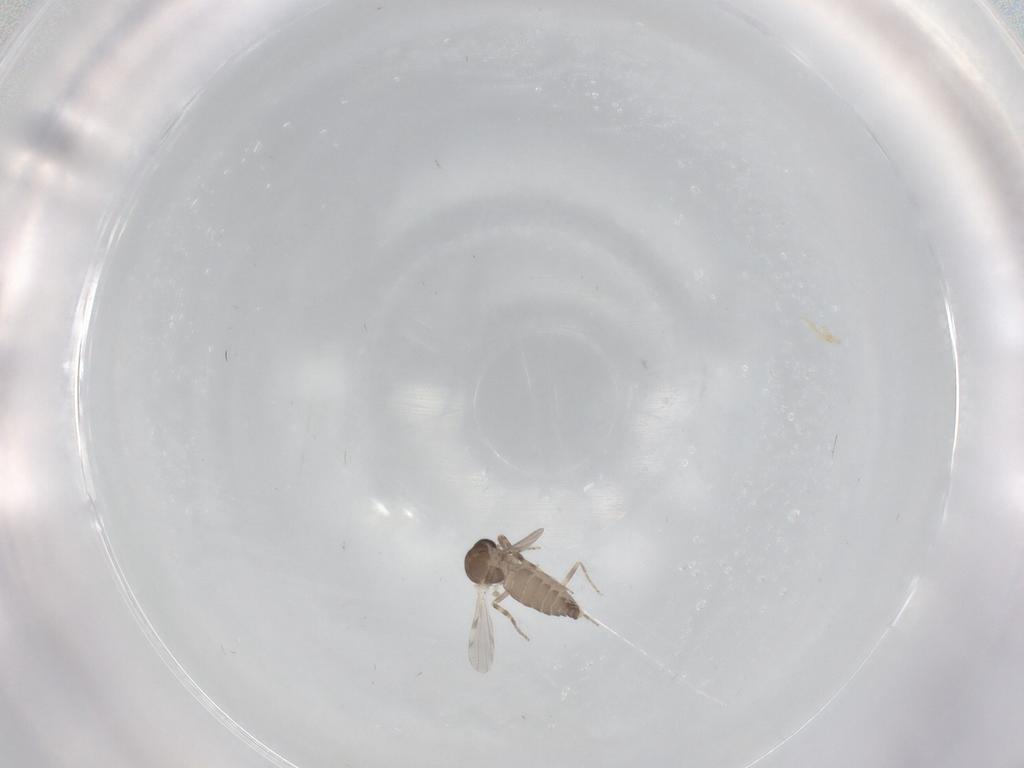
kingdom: Animalia
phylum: Arthropoda
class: Insecta
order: Diptera
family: Ceratopogonidae
